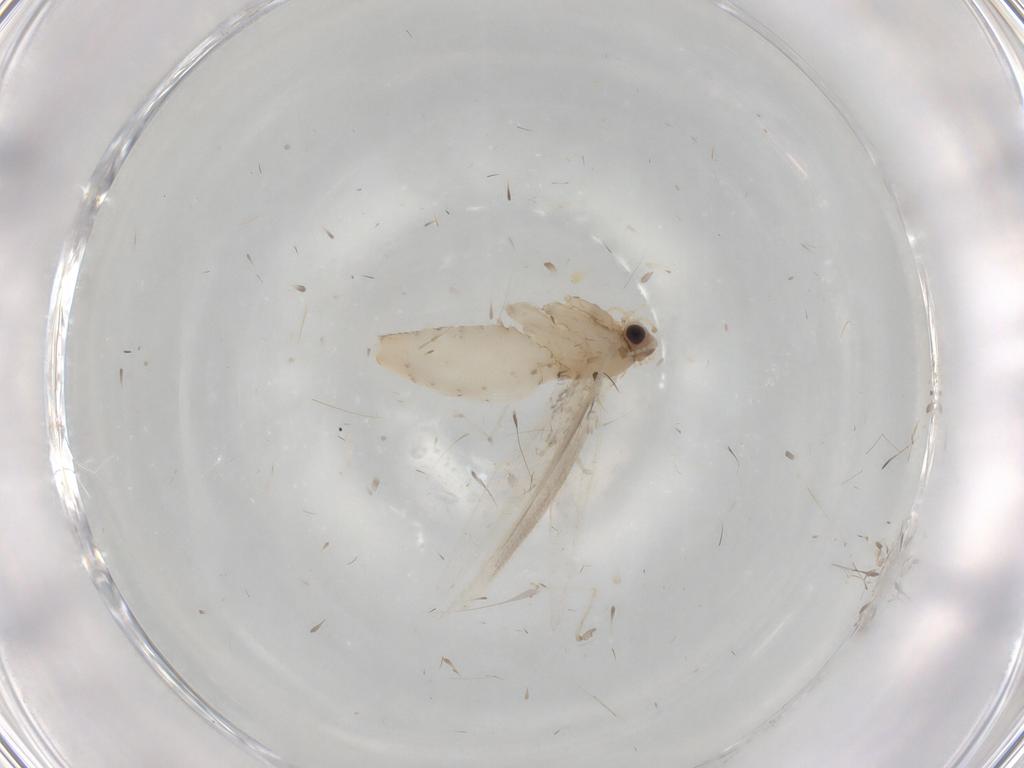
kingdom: Animalia
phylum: Arthropoda
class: Insecta
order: Lepidoptera
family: Tineidae
